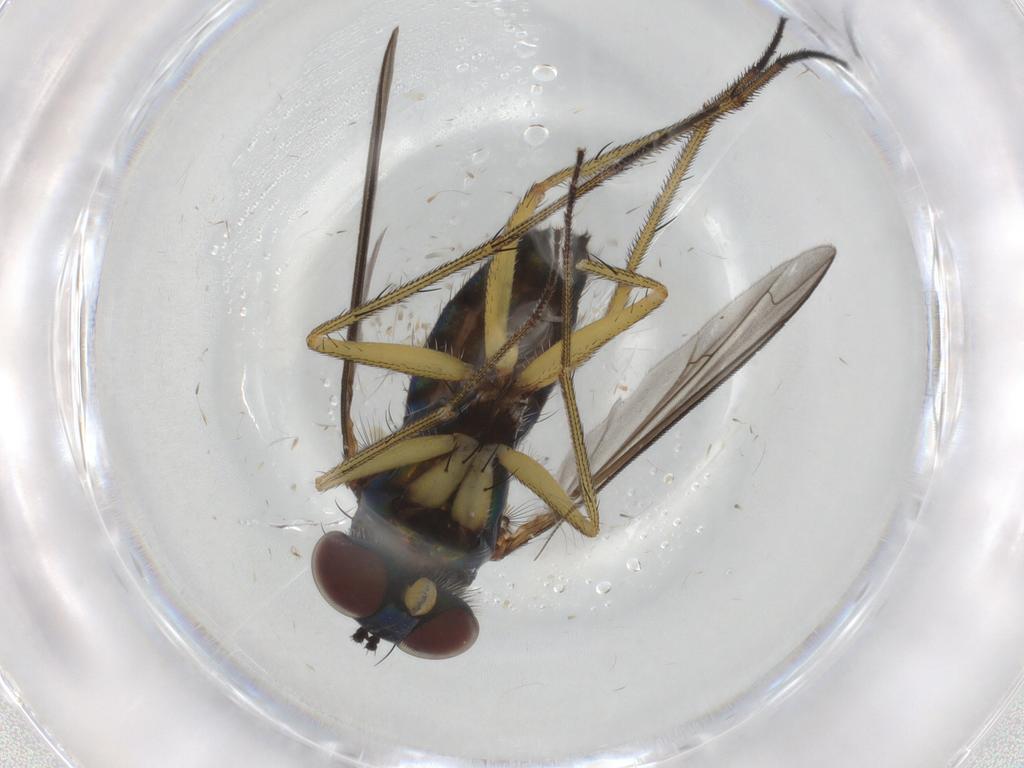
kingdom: Animalia
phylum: Arthropoda
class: Insecta
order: Diptera
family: Dolichopodidae
